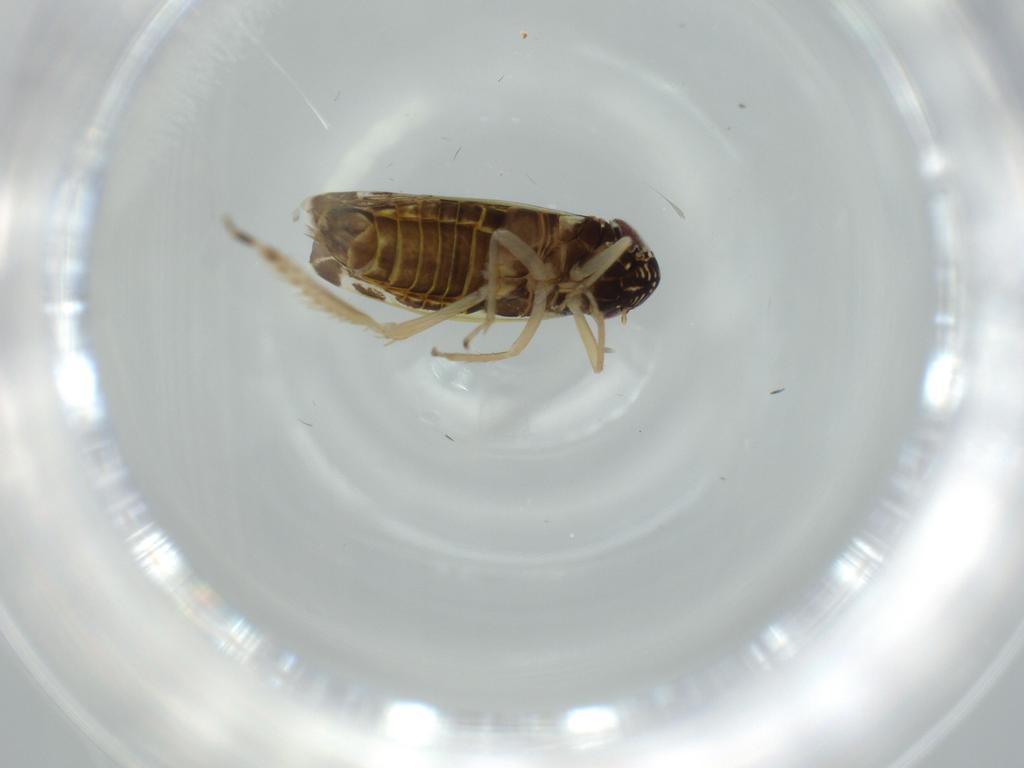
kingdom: Animalia
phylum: Arthropoda
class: Insecta
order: Hemiptera
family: Cicadellidae
